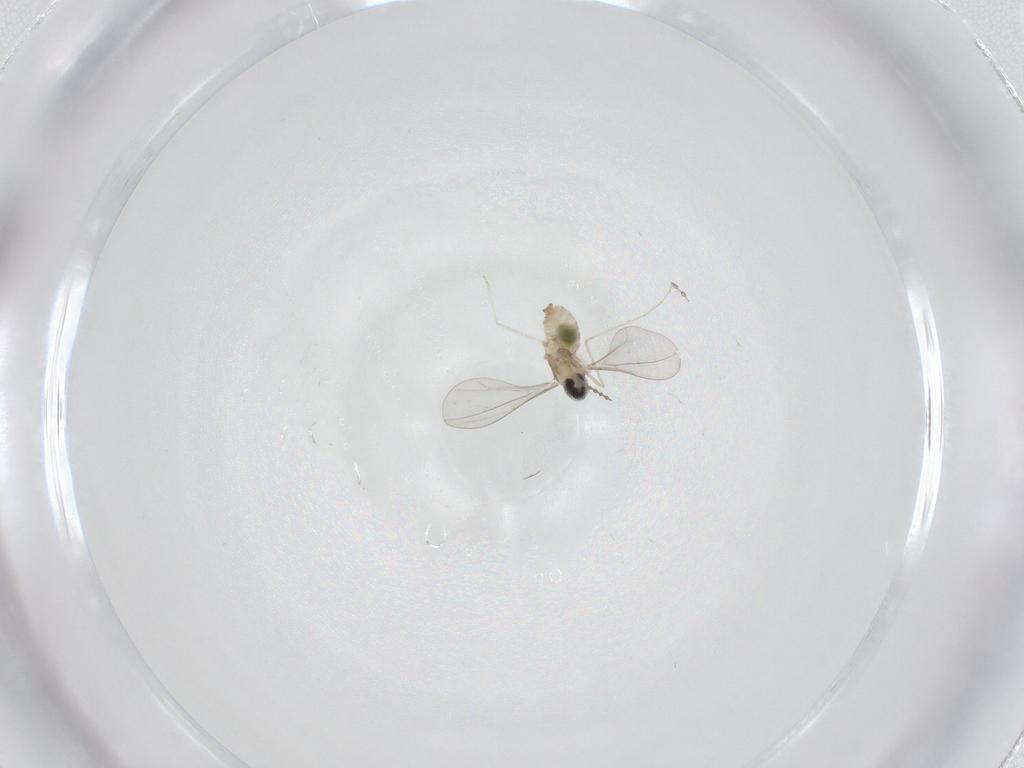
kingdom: Animalia
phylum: Arthropoda
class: Insecta
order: Diptera
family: Cecidomyiidae
